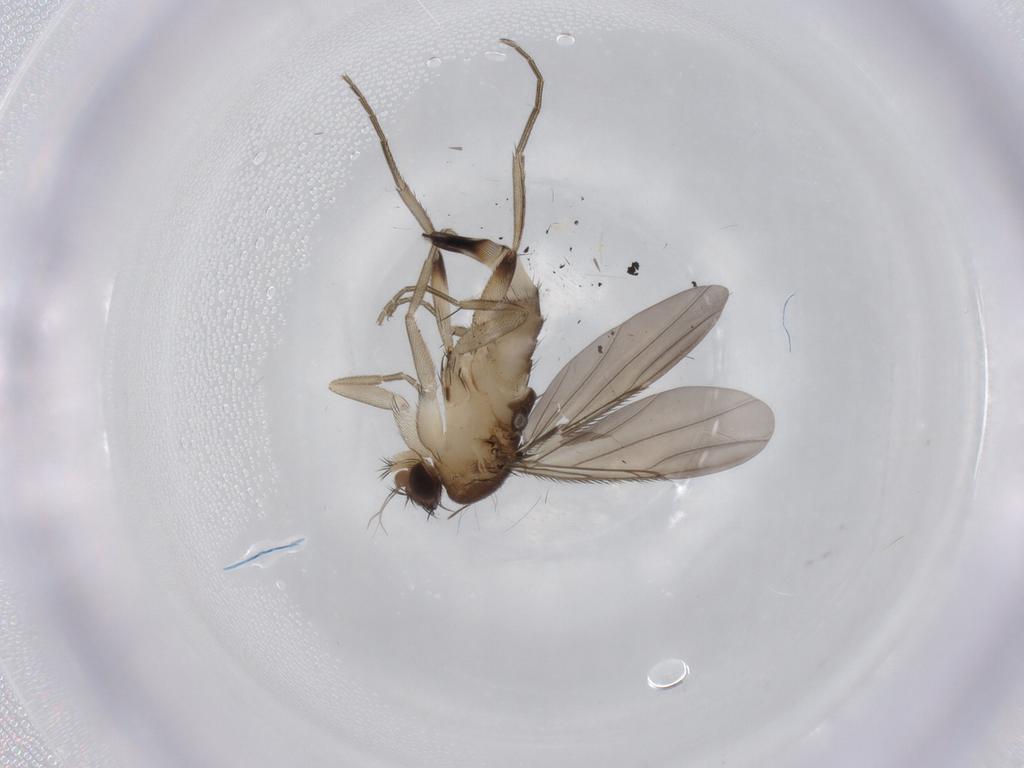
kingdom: Animalia
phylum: Arthropoda
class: Insecta
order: Diptera
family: Phoridae
